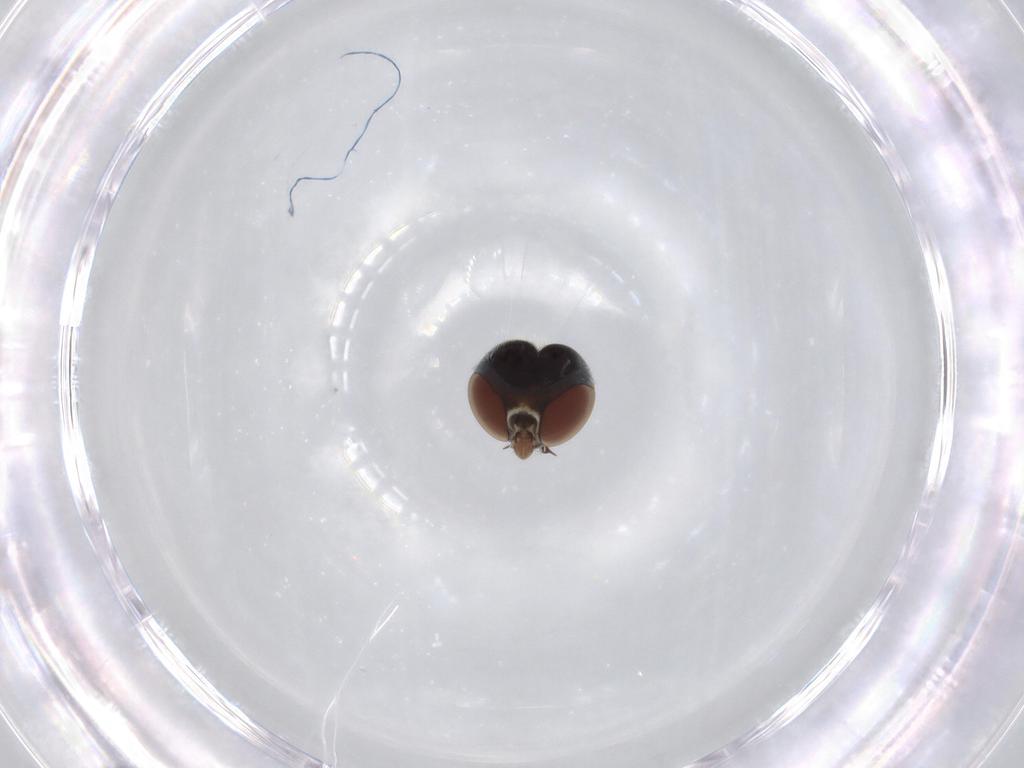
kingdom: Animalia
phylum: Arthropoda
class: Insecta
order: Diptera
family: Bombyliidae
